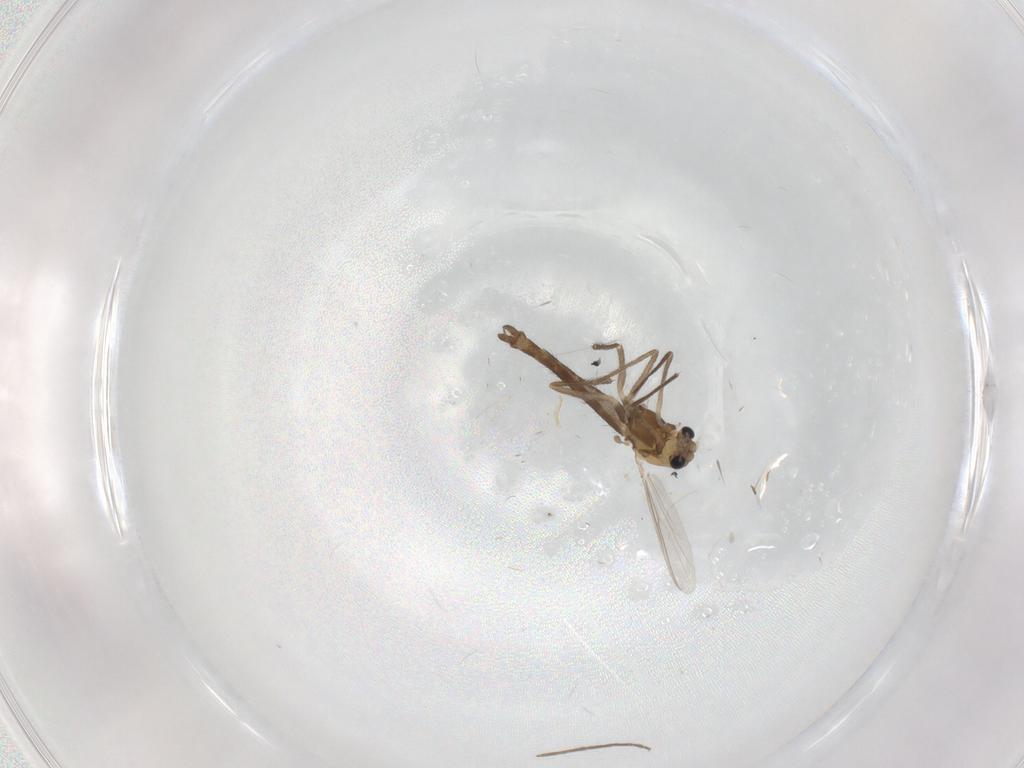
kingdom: Animalia
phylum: Arthropoda
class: Insecta
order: Diptera
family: Chironomidae
